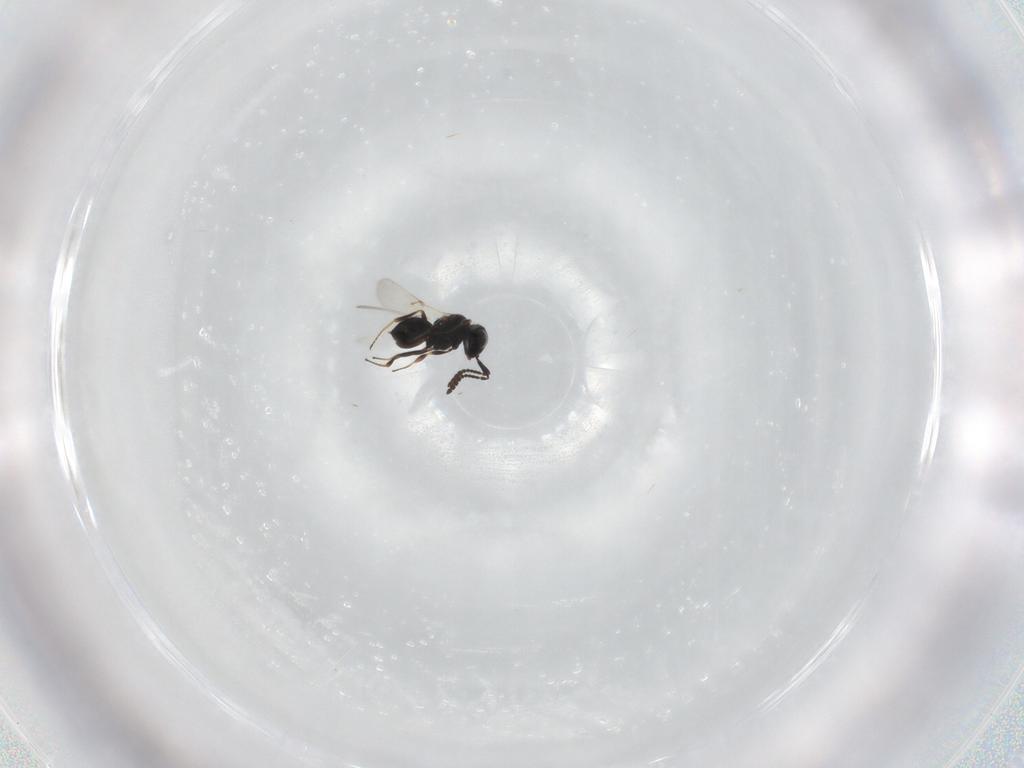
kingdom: Animalia
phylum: Arthropoda
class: Insecta
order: Hymenoptera
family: Scelionidae
